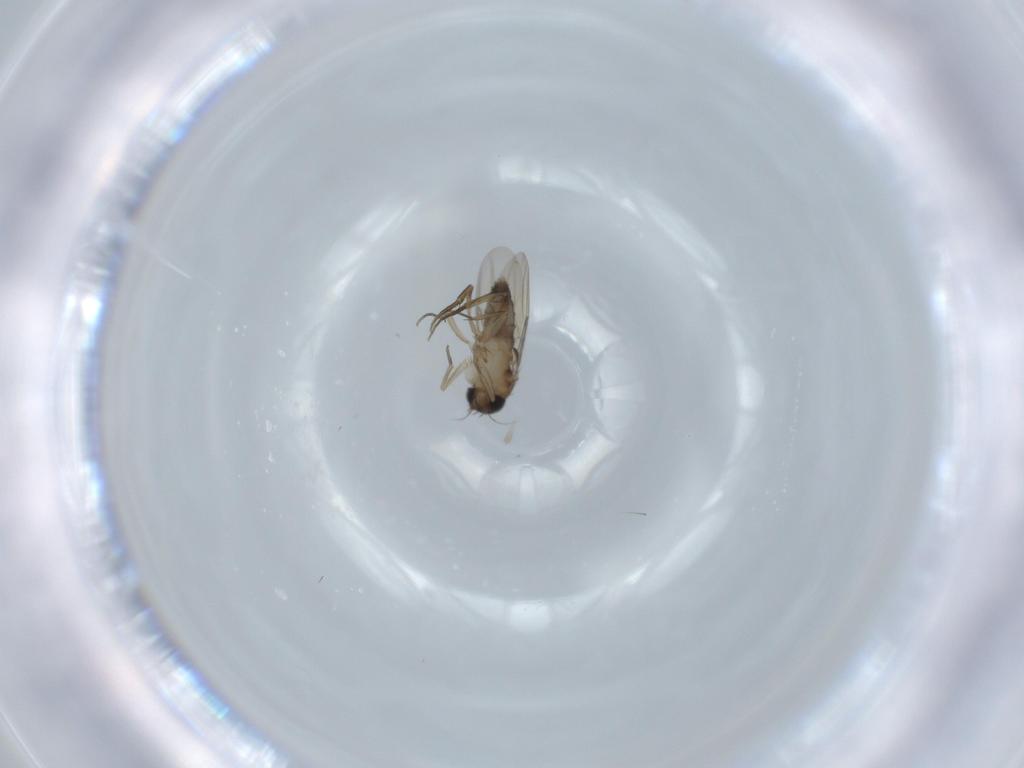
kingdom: Animalia
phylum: Arthropoda
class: Insecta
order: Diptera
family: Phoridae
